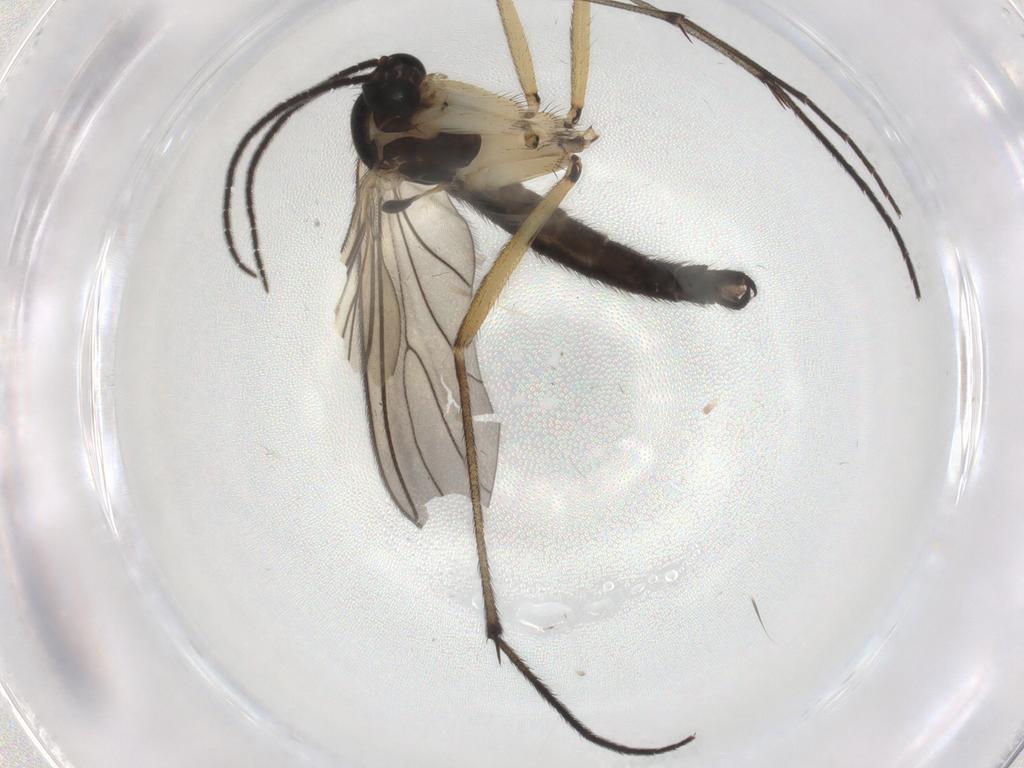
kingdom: Animalia
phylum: Arthropoda
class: Insecta
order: Diptera
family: Sciaridae
